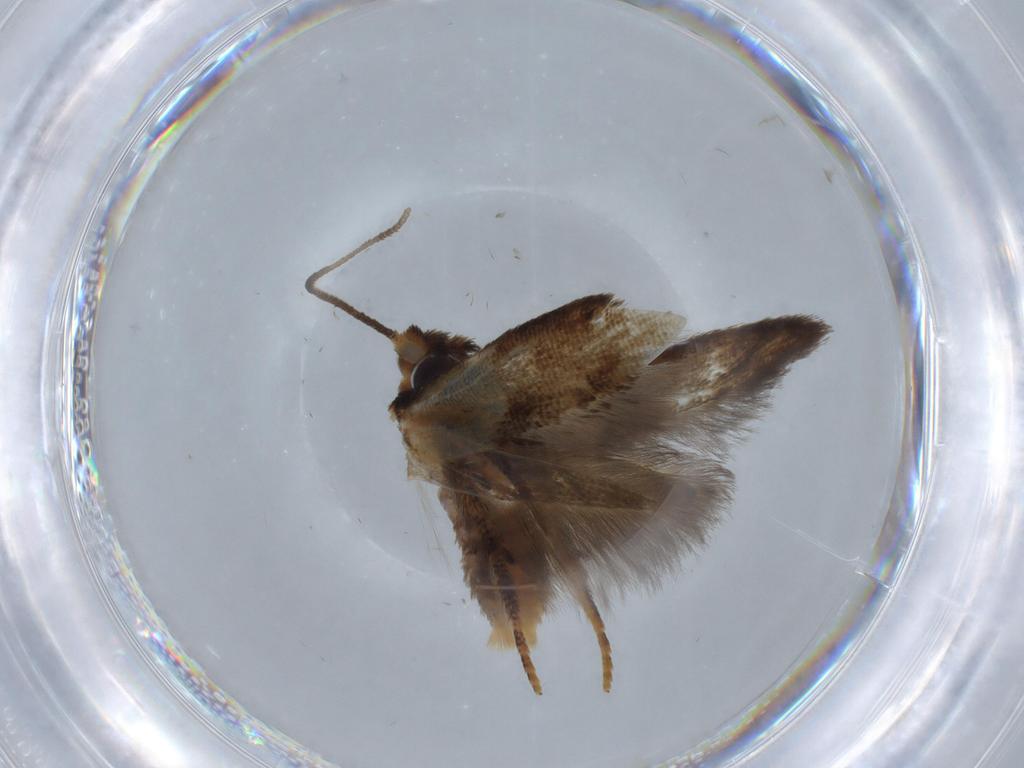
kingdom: Animalia
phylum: Arthropoda
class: Insecta
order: Lepidoptera
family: Blastobasidae
